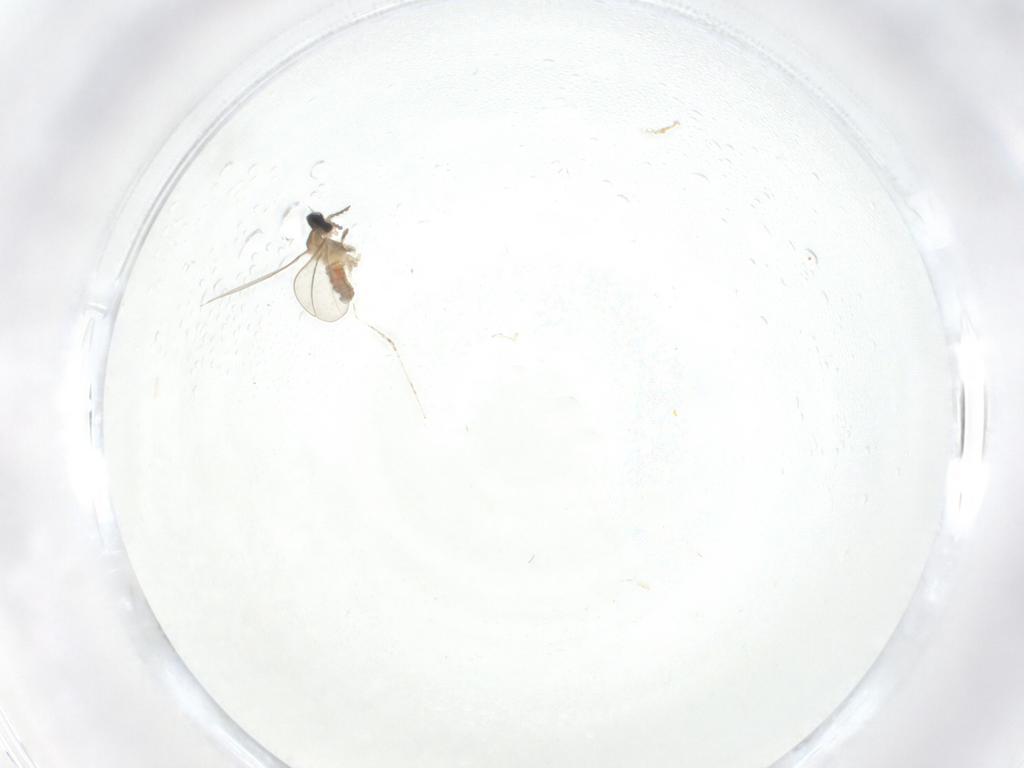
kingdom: Animalia
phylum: Arthropoda
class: Insecta
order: Diptera
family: Cecidomyiidae
